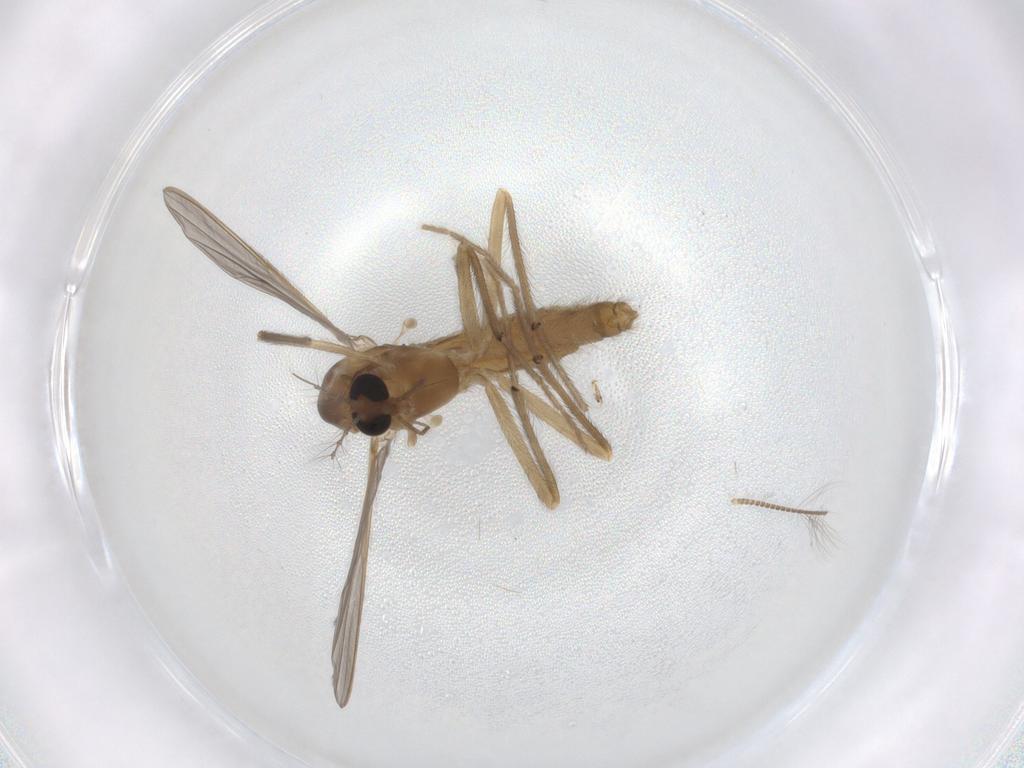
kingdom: Animalia
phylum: Arthropoda
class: Insecta
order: Diptera
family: Chironomidae
